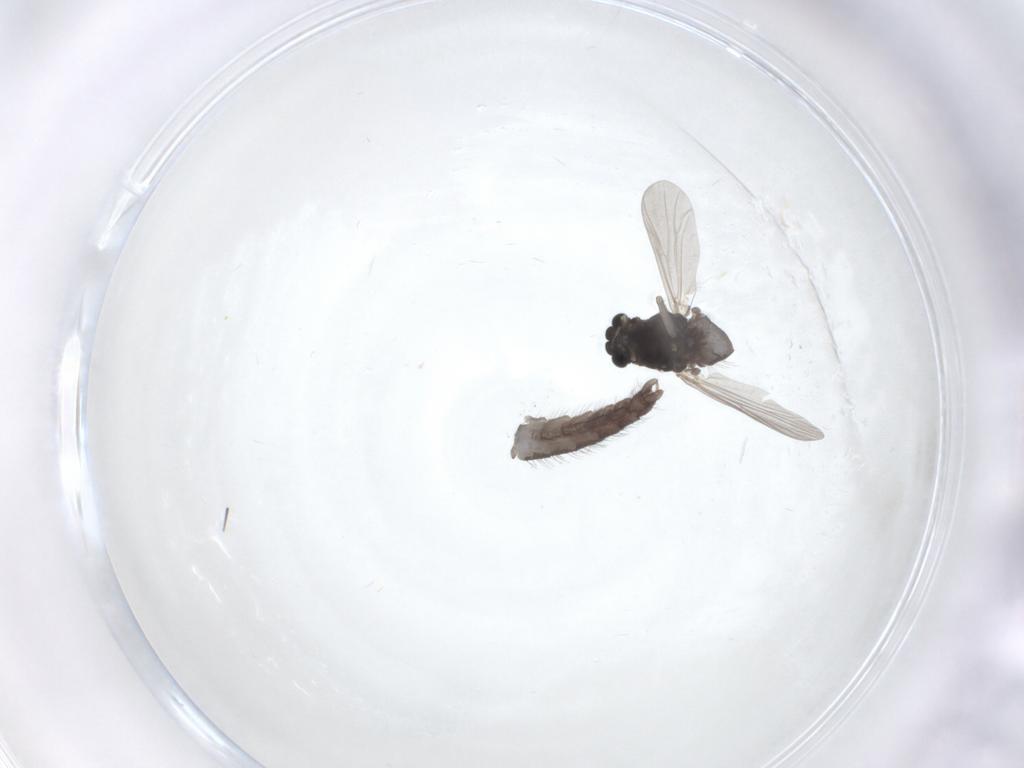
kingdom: Animalia
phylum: Arthropoda
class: Insecta
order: Diptera
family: Chironomidae
